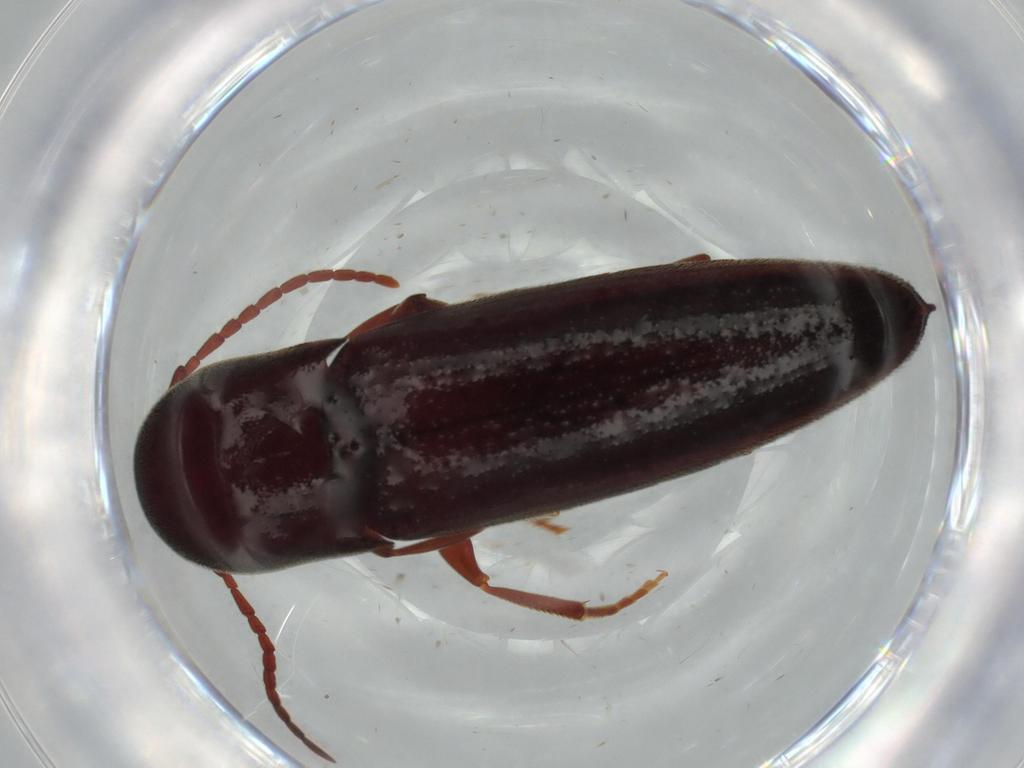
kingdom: Animalia
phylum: Arthropoda
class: Insecta
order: Coleoptera
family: Eucnemidae
